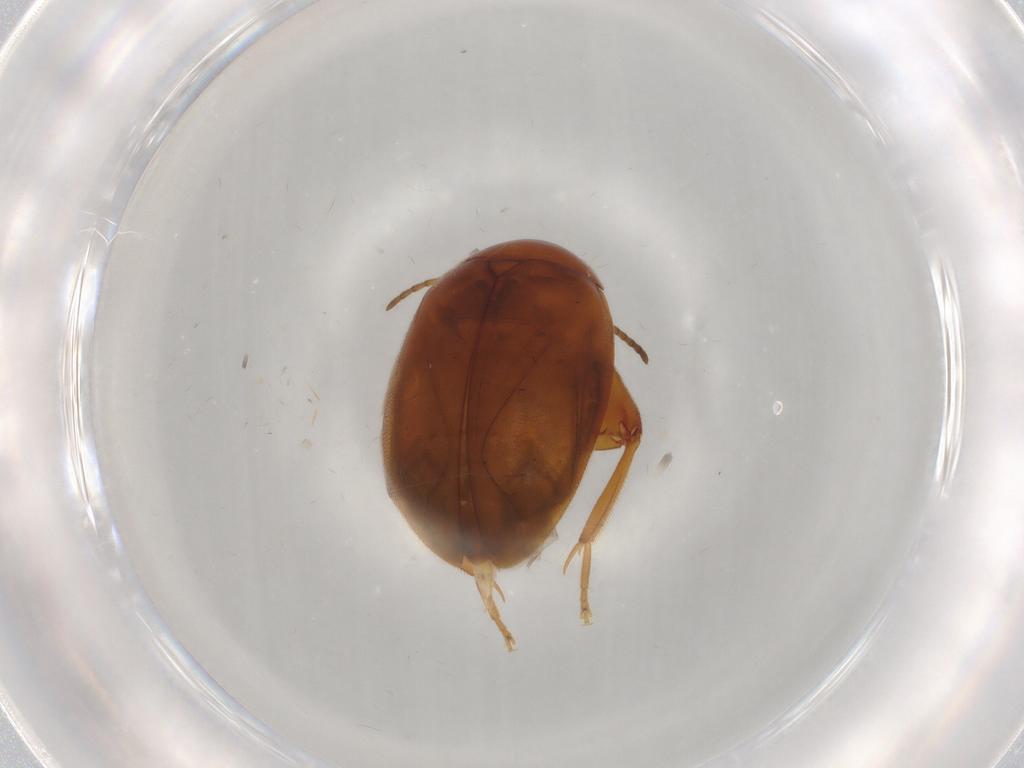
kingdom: Animalia
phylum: Arthropoda
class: Insecta
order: Coleoptera
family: Scirtidae
